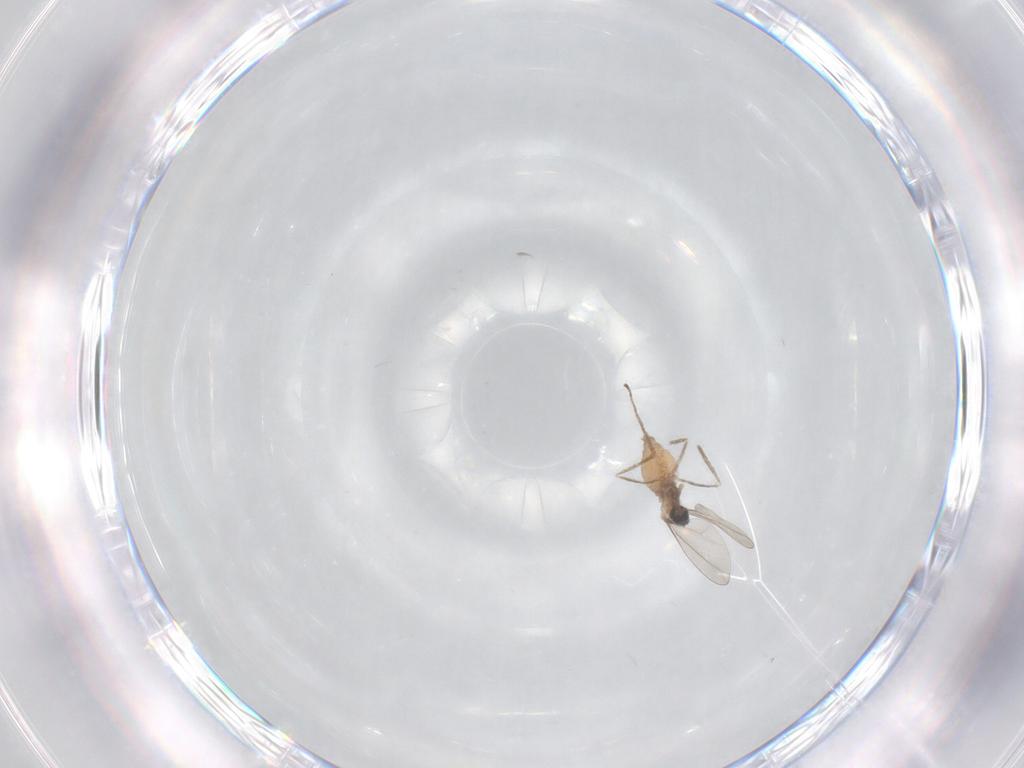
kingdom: Animalia
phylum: Arthropoda
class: Insecta
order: Diptera
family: Cecidomyiidae
